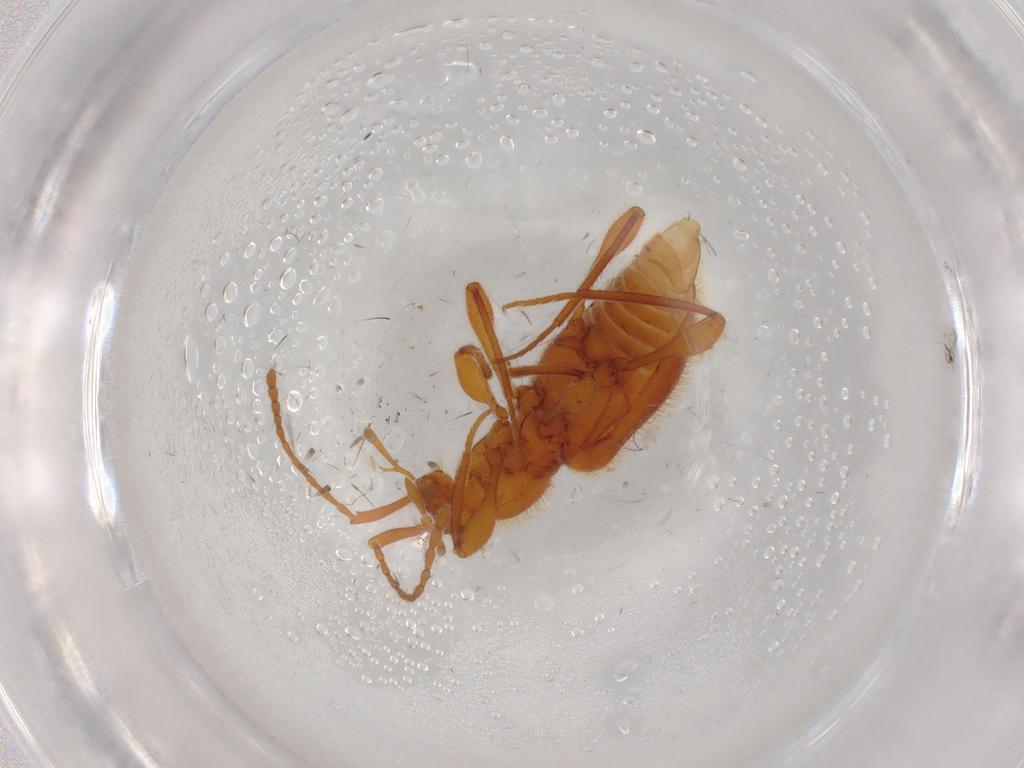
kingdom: Animalia
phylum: Arthropoda
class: Insecta
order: Coleoptera
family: Staphylinidae
